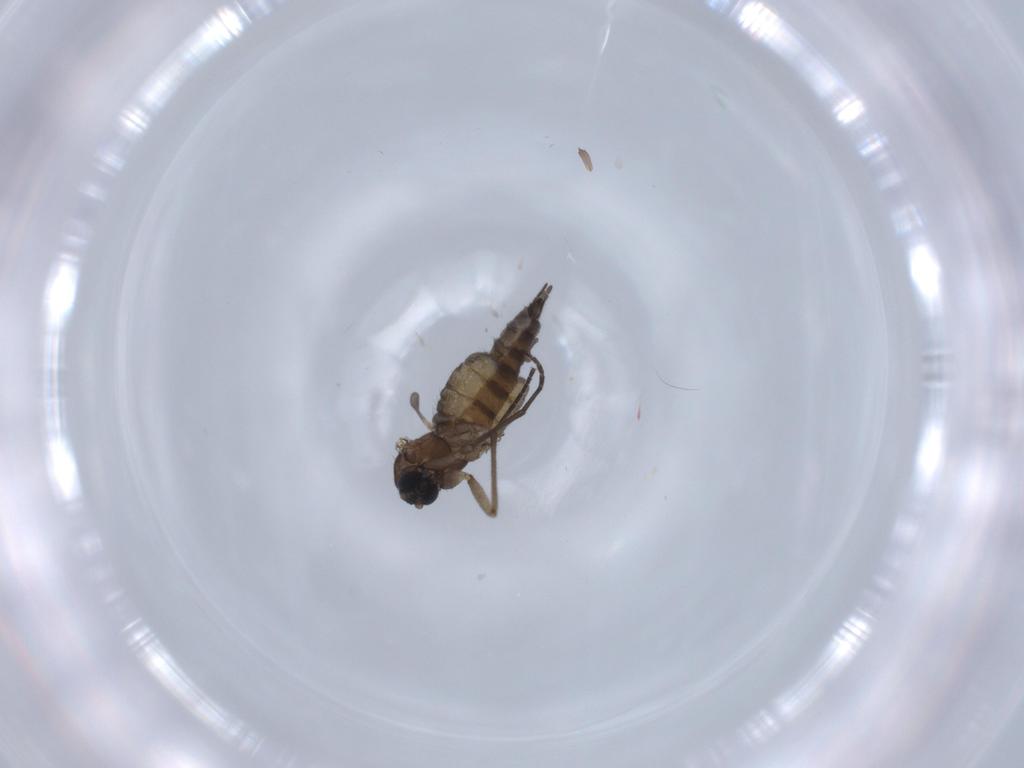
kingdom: Animalia
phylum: Arthropoda
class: Insecta
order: Diptera
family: Sciaridae
